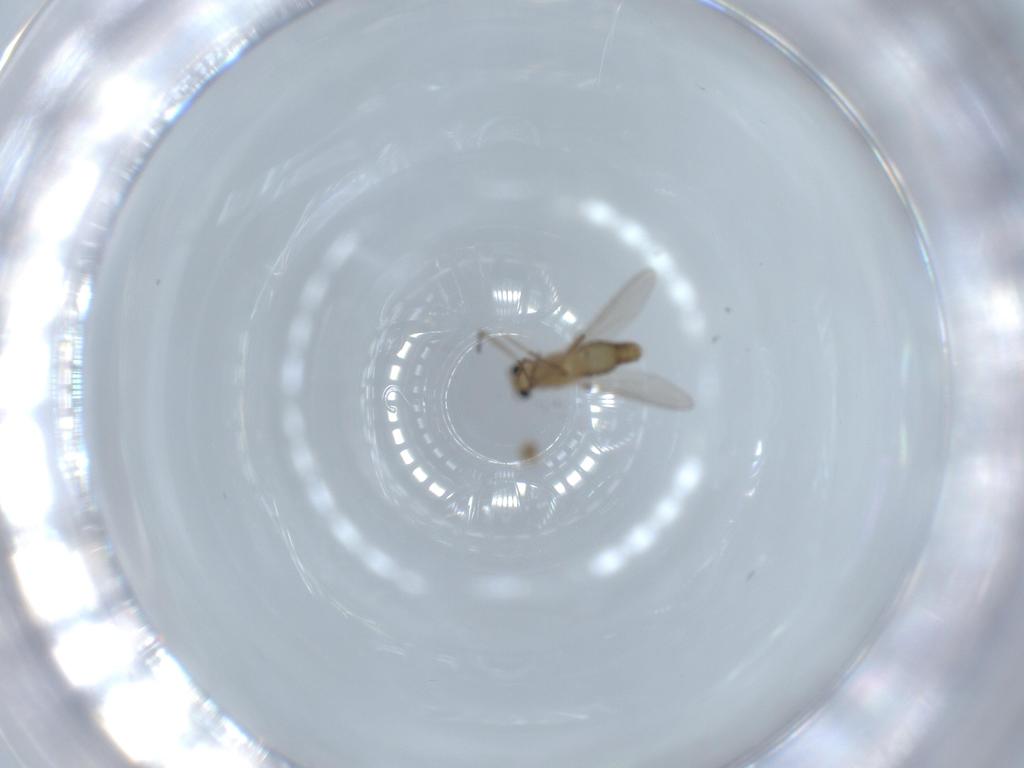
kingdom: Animalia
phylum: Arthropoda
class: Insecta
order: Diptera
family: Chironomidae
